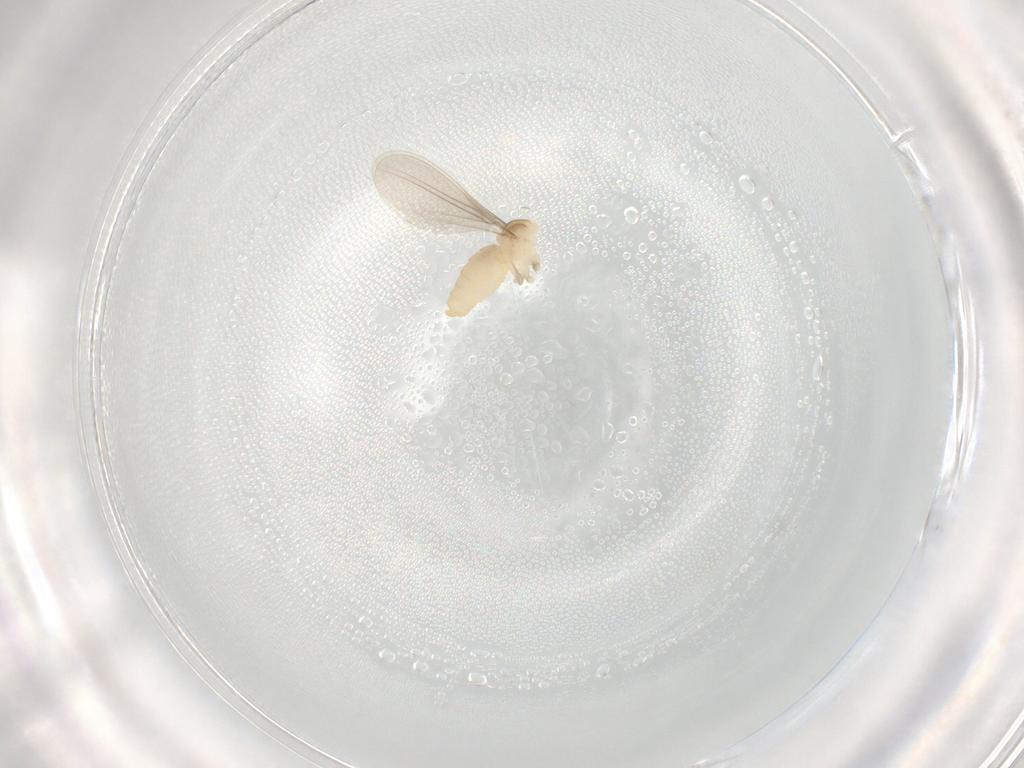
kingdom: Animalia
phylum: Arthropoda
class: Insecta
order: Diptera
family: Cecidomyiidae
